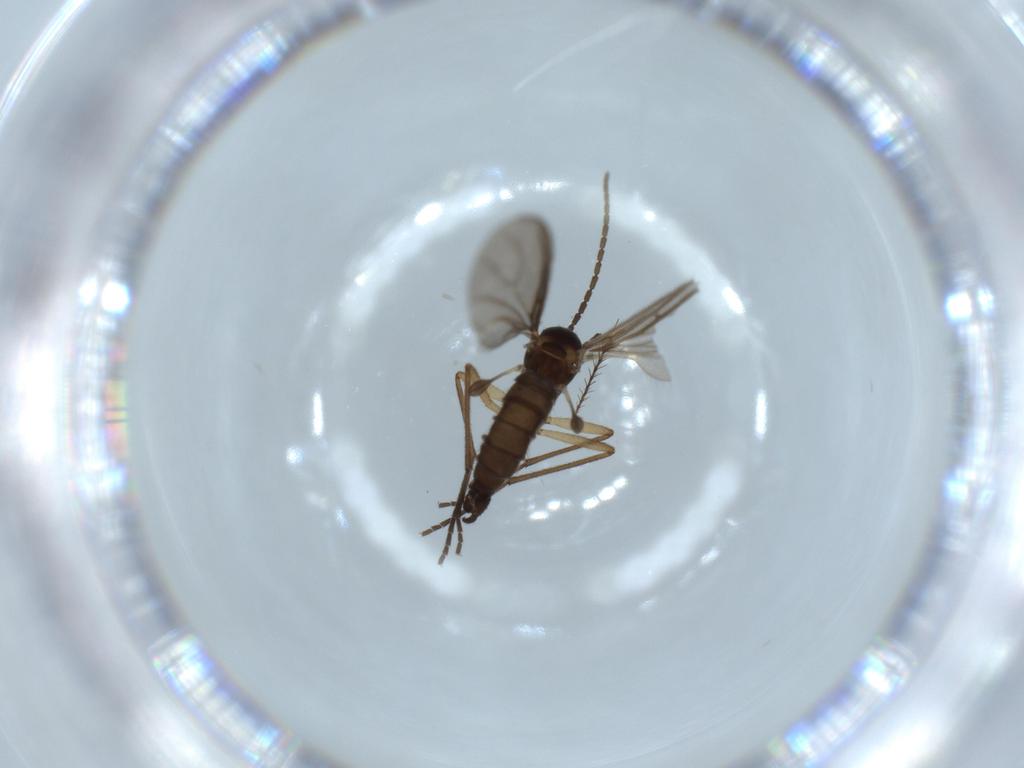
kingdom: Animalia
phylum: Arthropoda
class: Insecta
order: Diptera
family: Sciaridae
